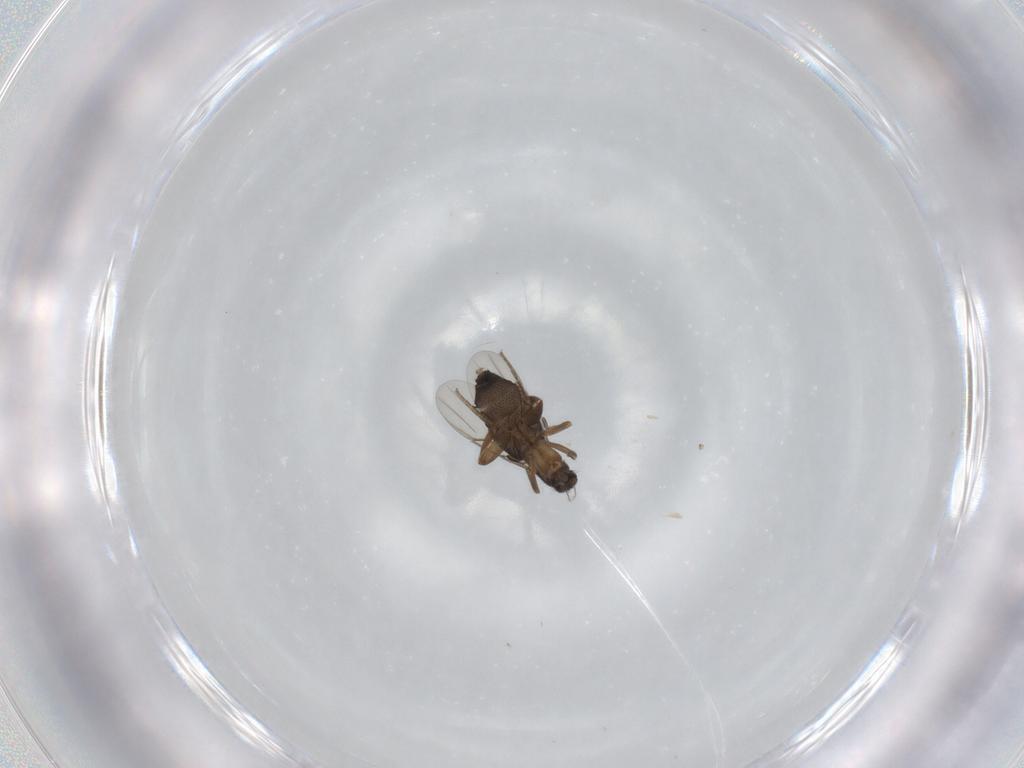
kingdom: Animalia
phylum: Arthropoda
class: Insecta
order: Diptera
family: Phoridae
